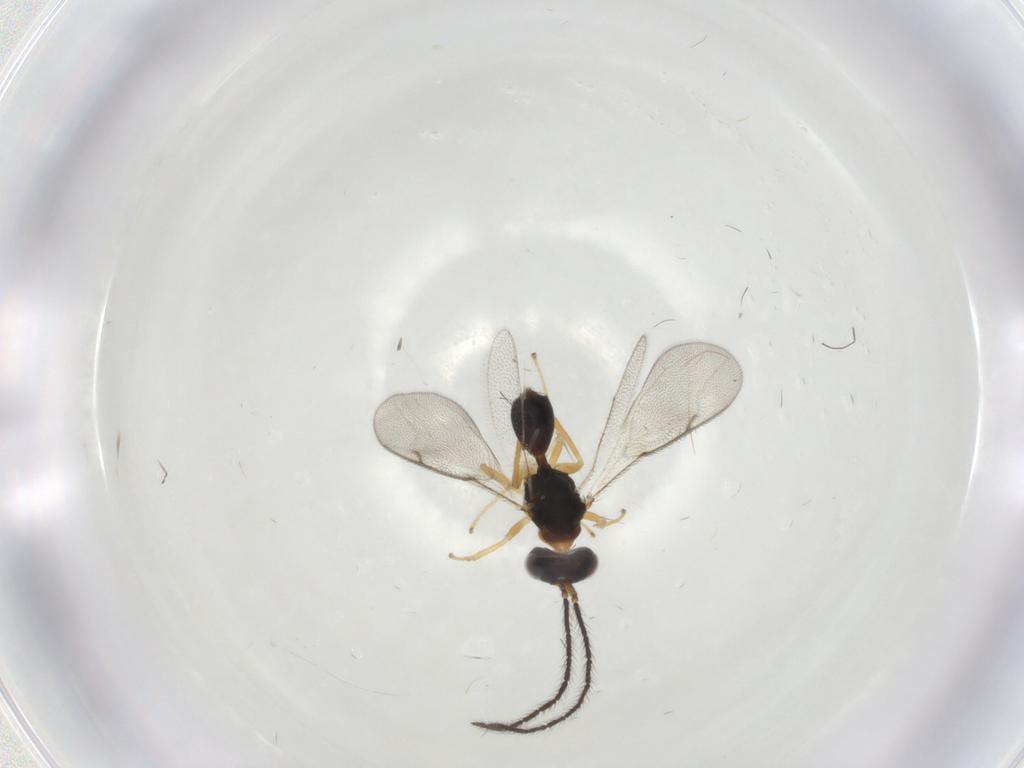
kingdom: Animalia
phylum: Arthropoda
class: Insecta
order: Hymenoptera
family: Diparidae
